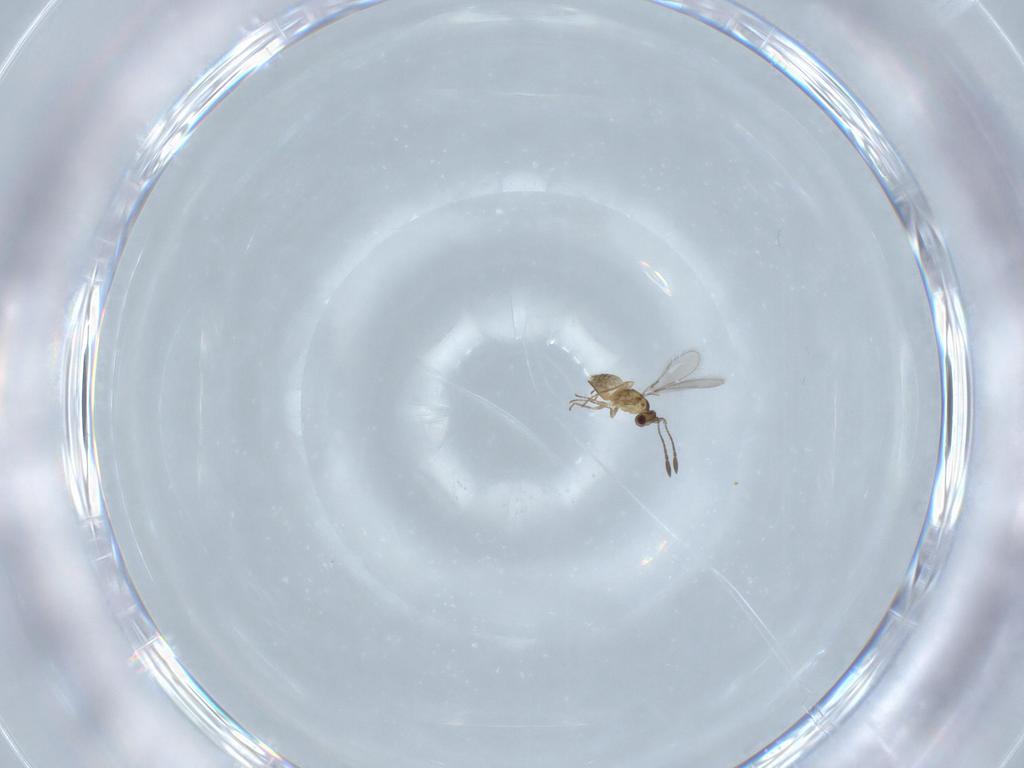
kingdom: Animalia
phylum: Arthropoda
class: Insecta
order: Hymenoptera
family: Mymaridae
